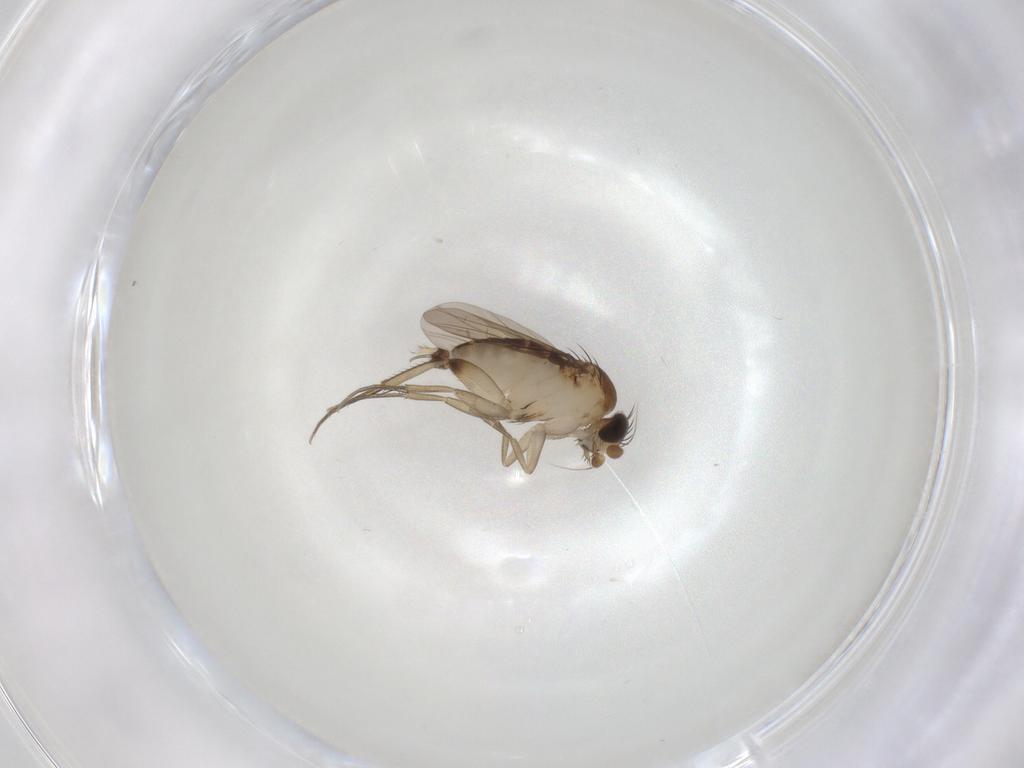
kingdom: Animalia
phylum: Arthropoda
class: Insecta
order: Diptera
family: Phoridae
